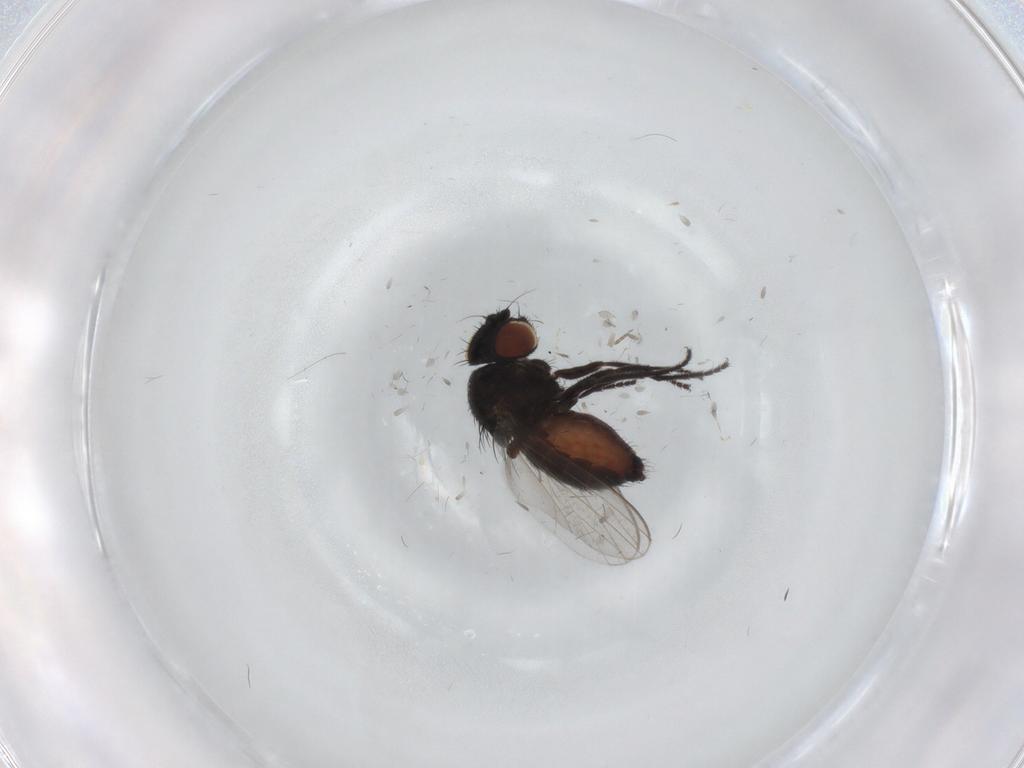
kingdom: Animalia
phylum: Arthropoda
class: Insecta
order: Diptera
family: Milichiidae
